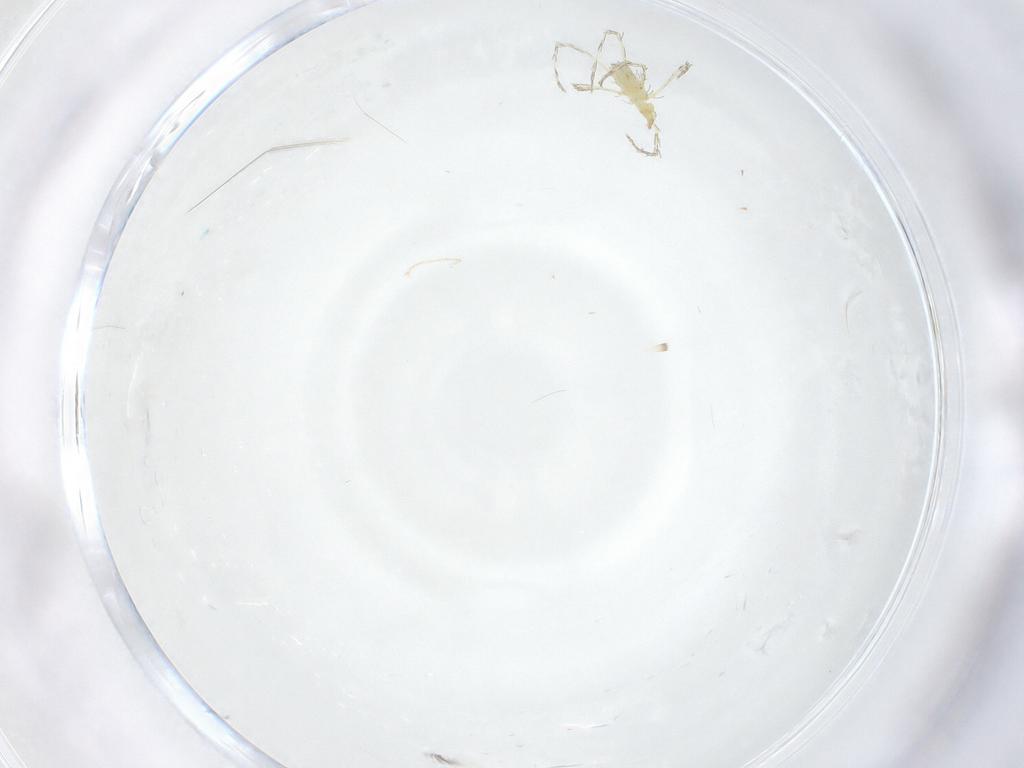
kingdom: Animalia
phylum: Arthropoda
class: Insecta
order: Diptera
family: Chironomidae
